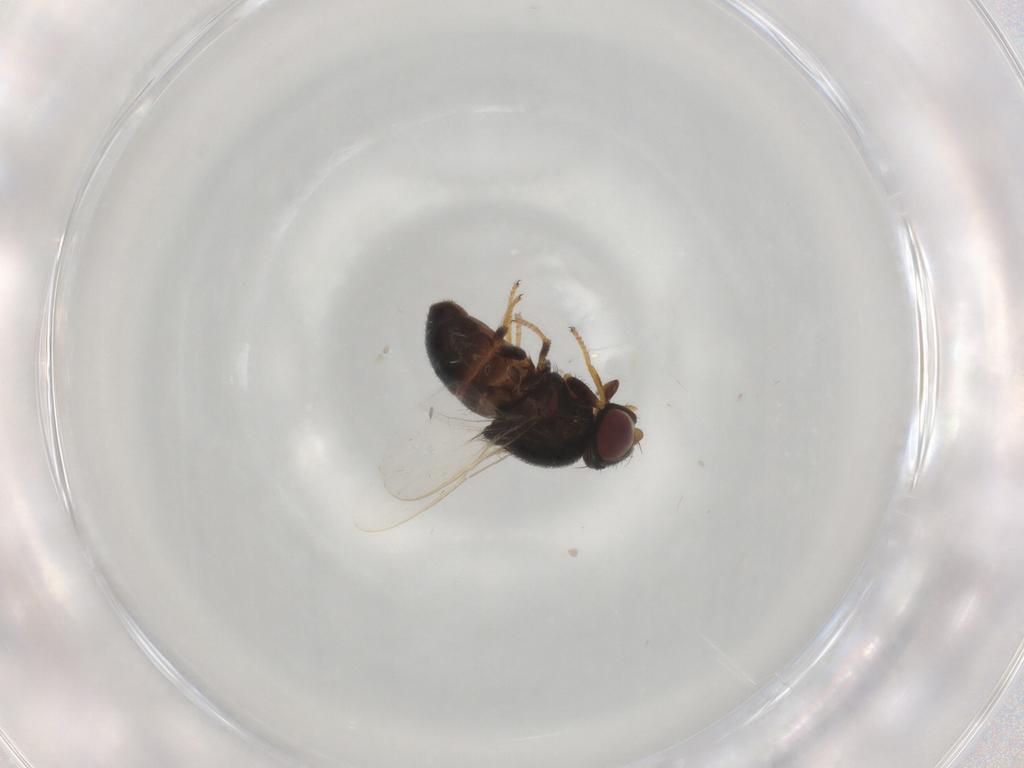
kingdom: Animalia
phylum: Arthropoda
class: Insecta
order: Diptera
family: Chloropidae
